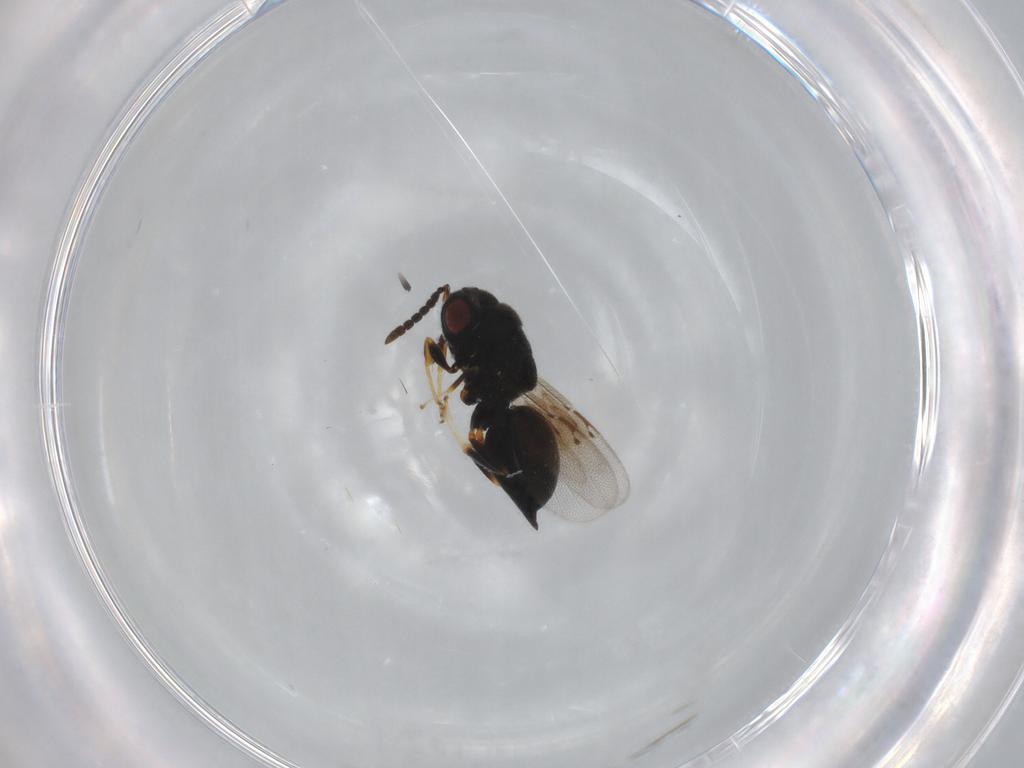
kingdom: Animalia
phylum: Arthropoda
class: Insecta
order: Hymenoptera
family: Eurytomidae
